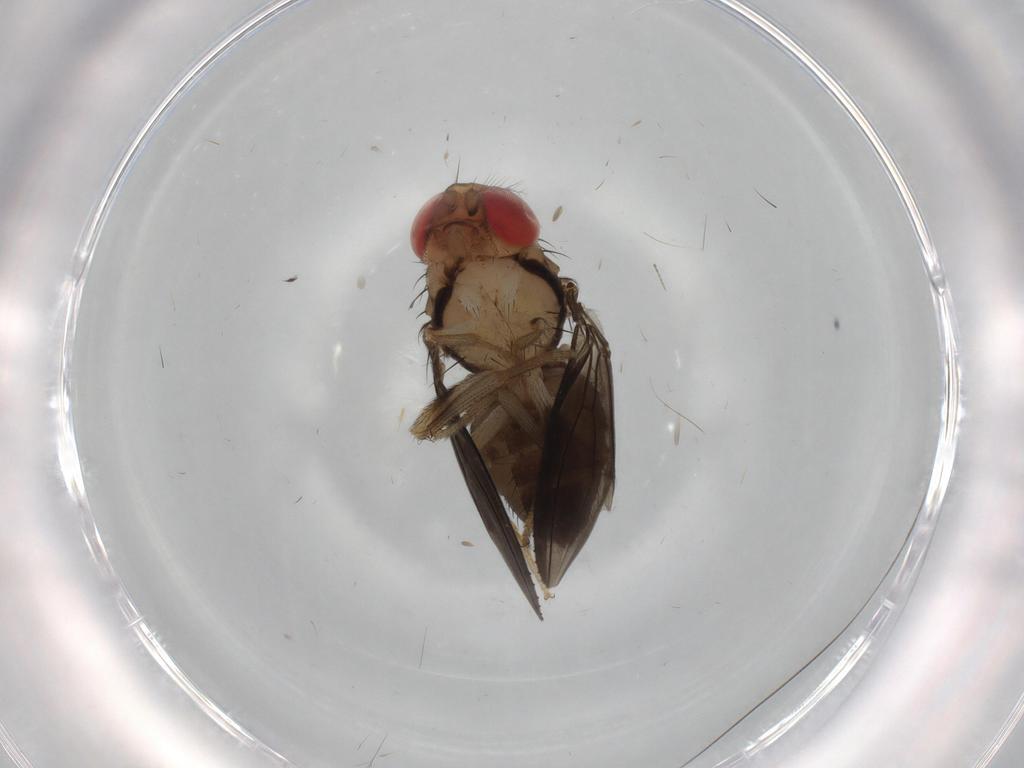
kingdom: Animalia
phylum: Arthropoda
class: Insecta
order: Diptera
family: Drosophilidae
